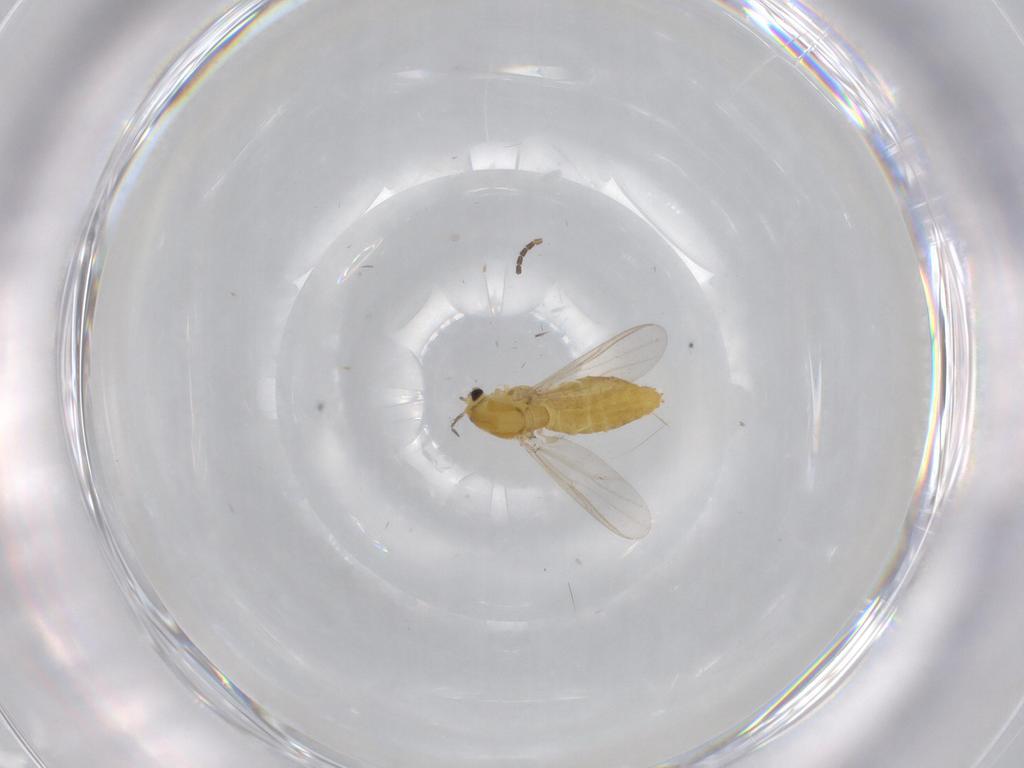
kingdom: Animalia
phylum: Arthropoda
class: Insecta
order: Diptera
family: Chironomidae
